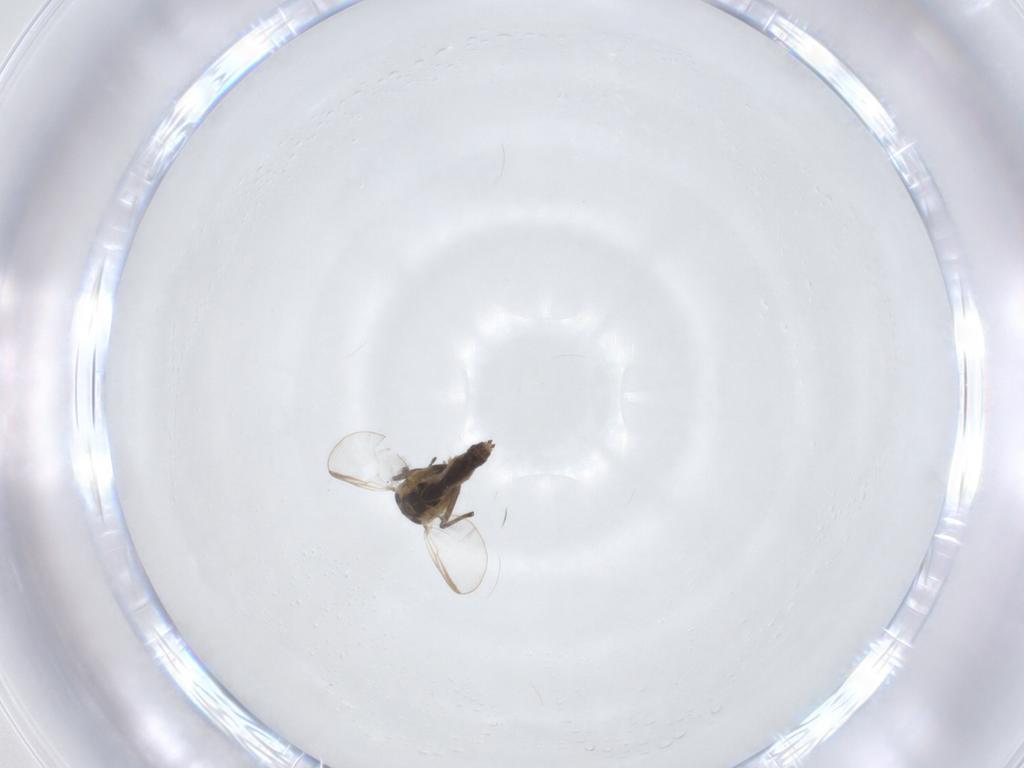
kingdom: Animalia
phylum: Arthropoda
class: Insecta
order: Diptera
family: Chironomidae
